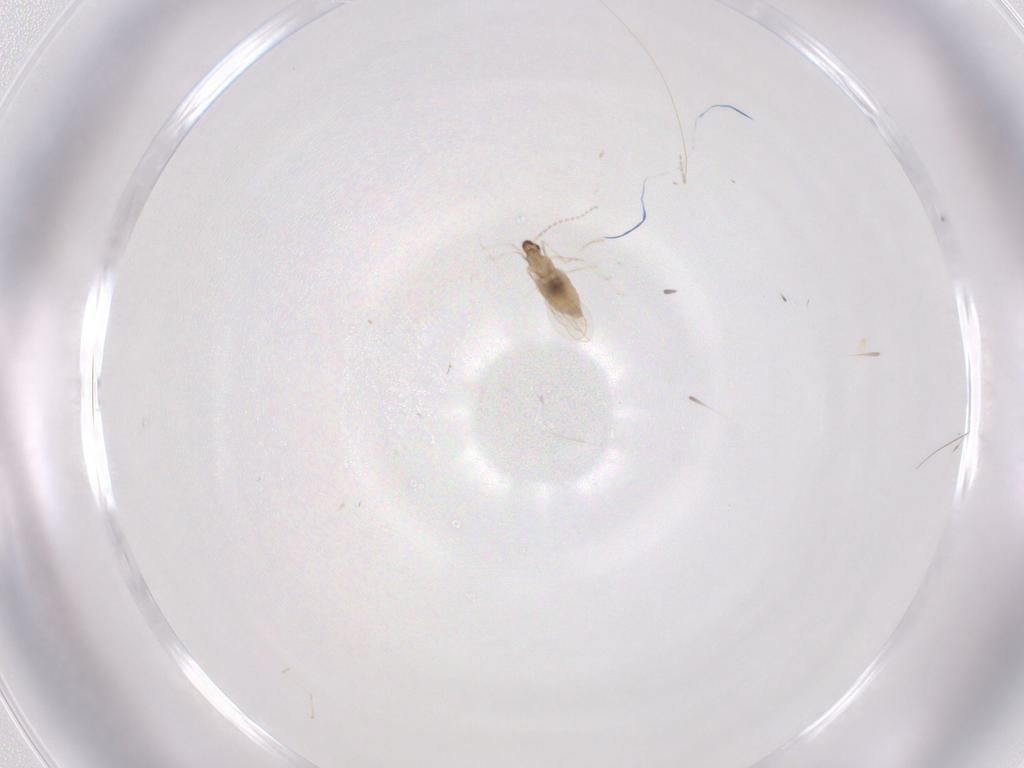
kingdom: Animalia
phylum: Arthropoda
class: Insecta
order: Diptera
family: Cecidomyiidae
